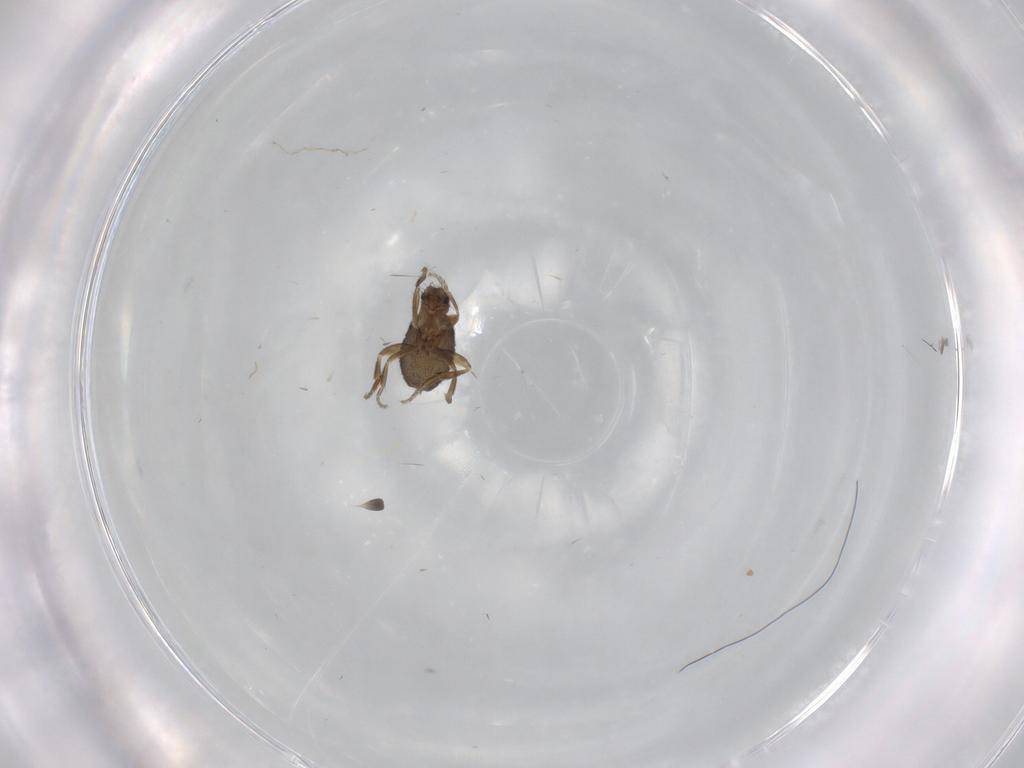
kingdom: Animalia
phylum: Arthropoda
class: Insecta
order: Diptera
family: Phoridae
